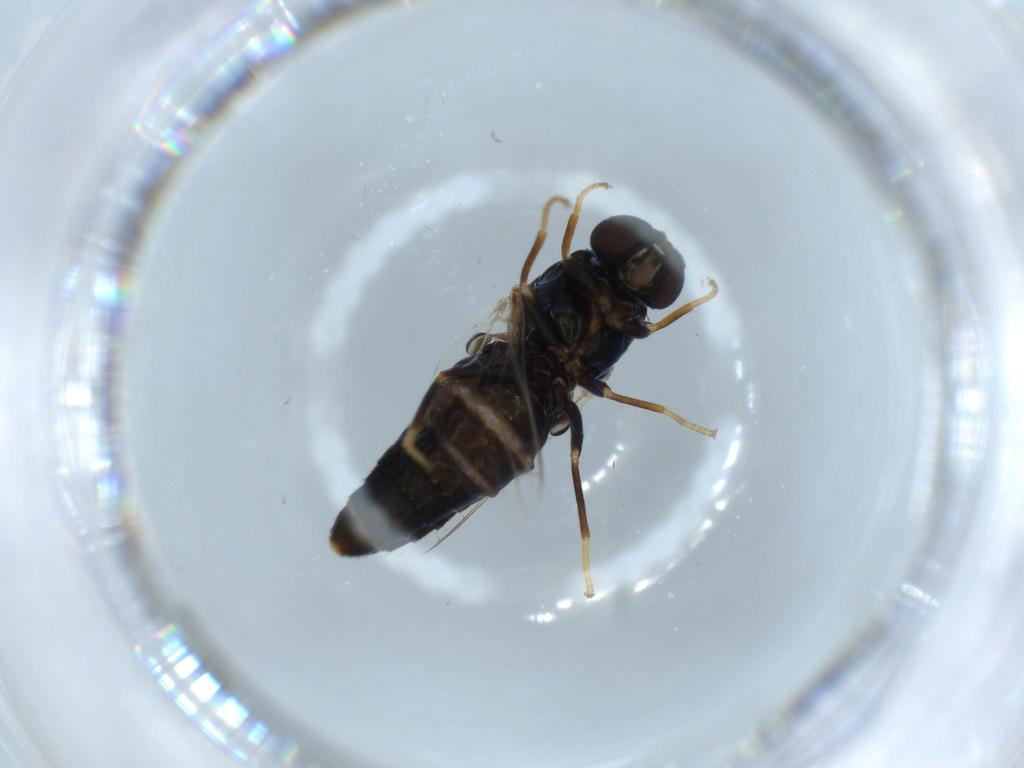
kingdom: Animalia
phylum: Arthropoda
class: Insecta
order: Diptera
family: Scenopinidae
